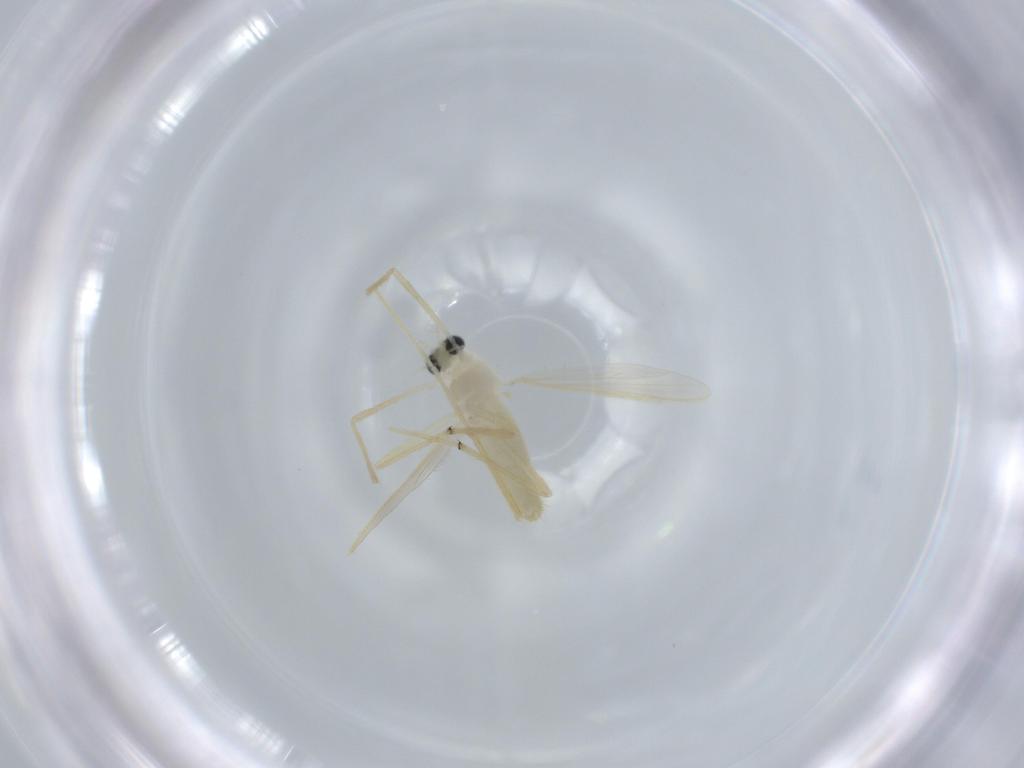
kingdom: Animalia
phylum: Arthropoda
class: Insecta
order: Diptera
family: Chironomidae
